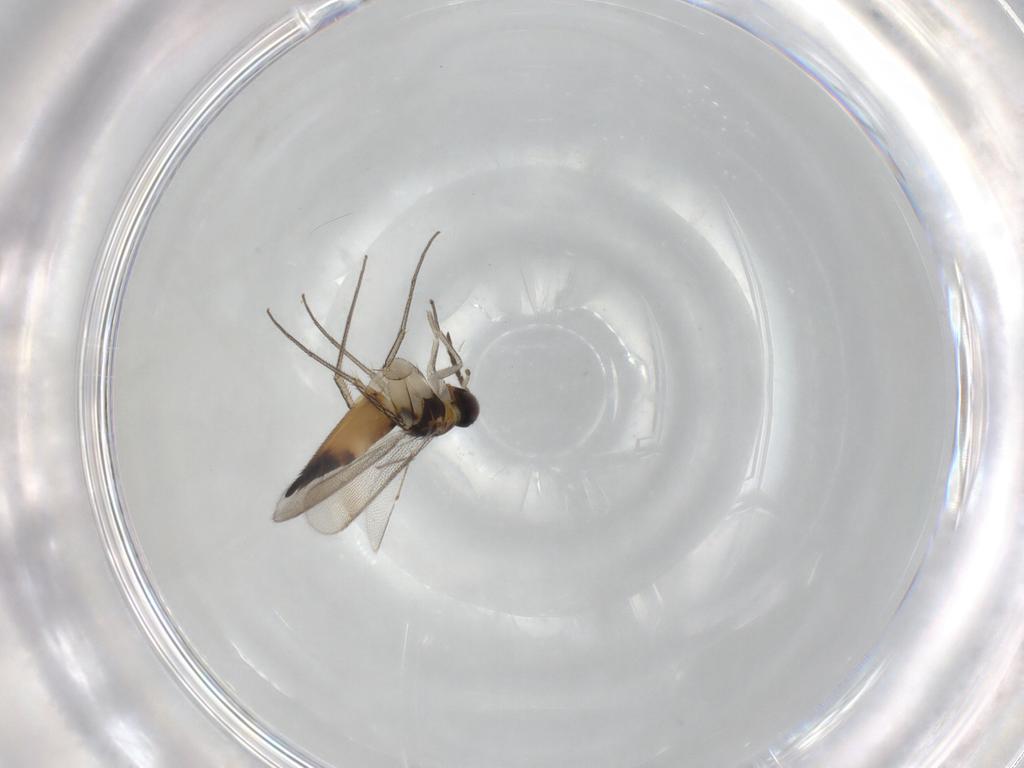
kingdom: Animalia
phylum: Arthropoda
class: Insecta
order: Hymenoptera
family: Eulophidae
